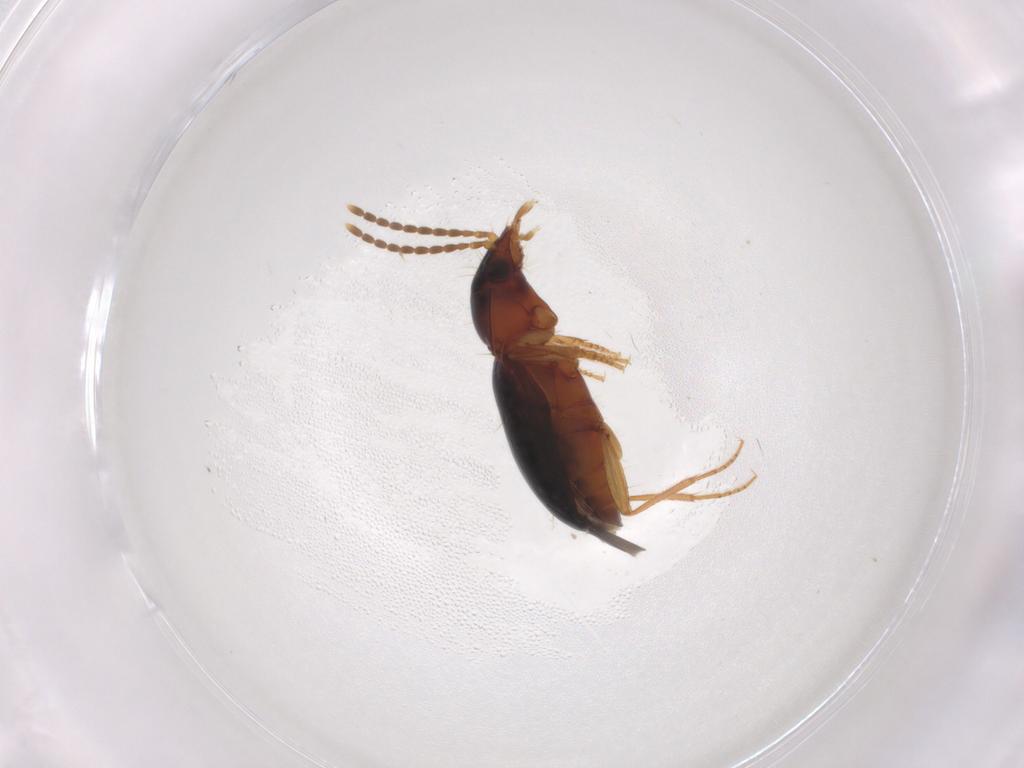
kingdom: Animalia
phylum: Arthropoda
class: Insecta
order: Coleoptera
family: Carabidae
